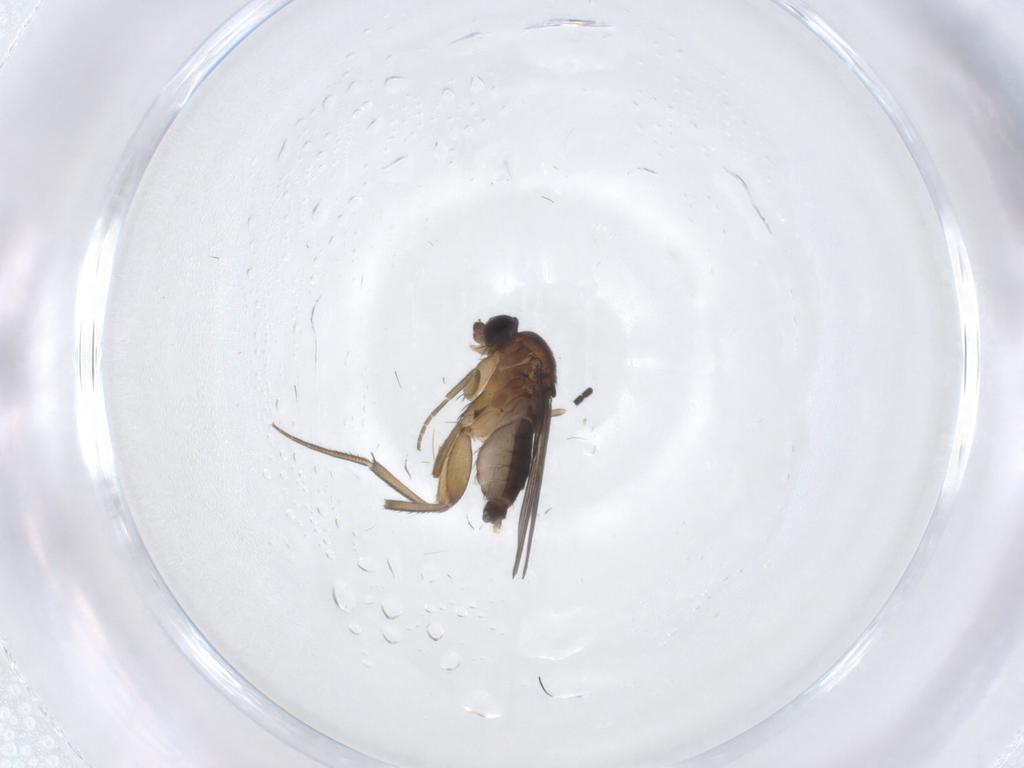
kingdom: Animalia
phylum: Arthropoda
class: Insecta
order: Diptera
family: Phoridae
